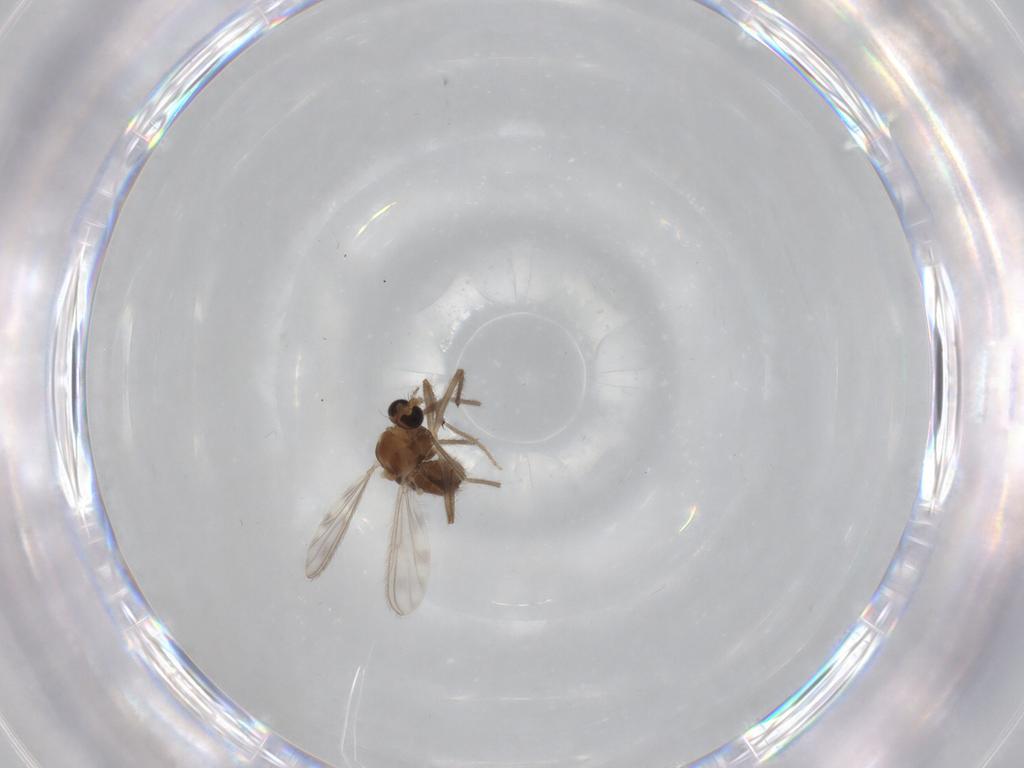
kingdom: Animalia
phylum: Arthropoda
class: Insecta
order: Diptera
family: Chironomidae
